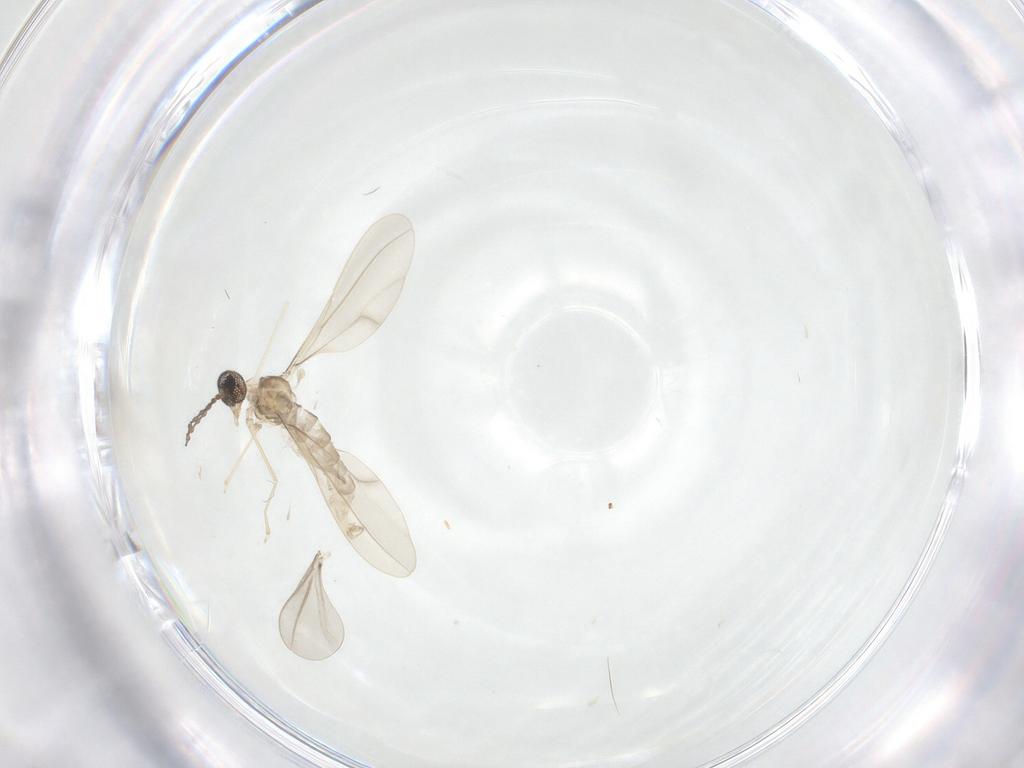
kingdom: Animalia
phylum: Arthropoda
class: Insecta
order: Diptera
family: Cecidomyiidae
